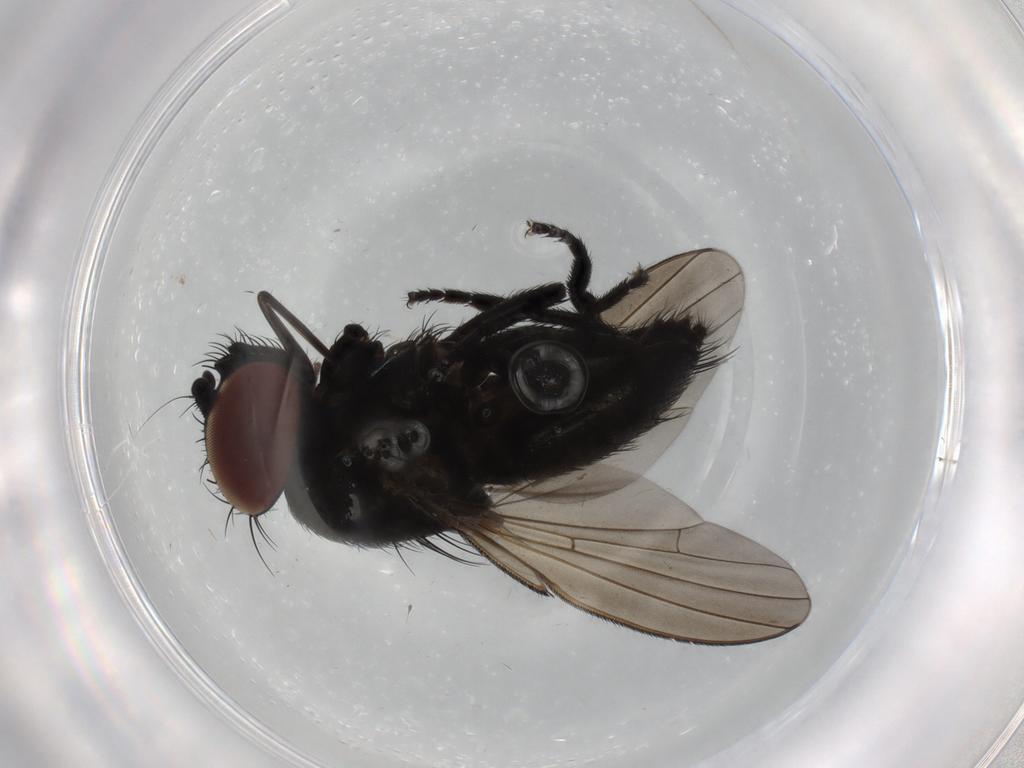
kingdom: Animalia
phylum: Arthropoda
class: Insecta
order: Diptera
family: Milichiidae
